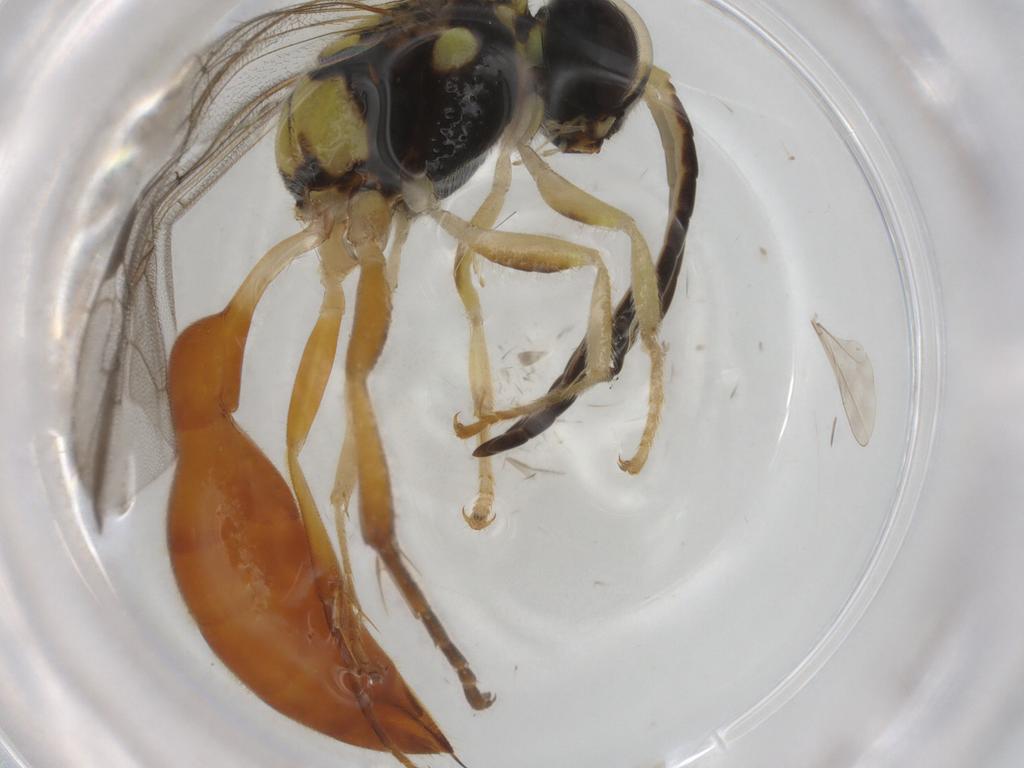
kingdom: Animalia
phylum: Arthropoda
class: Insecta
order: Hymenoptera
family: Psenidae
